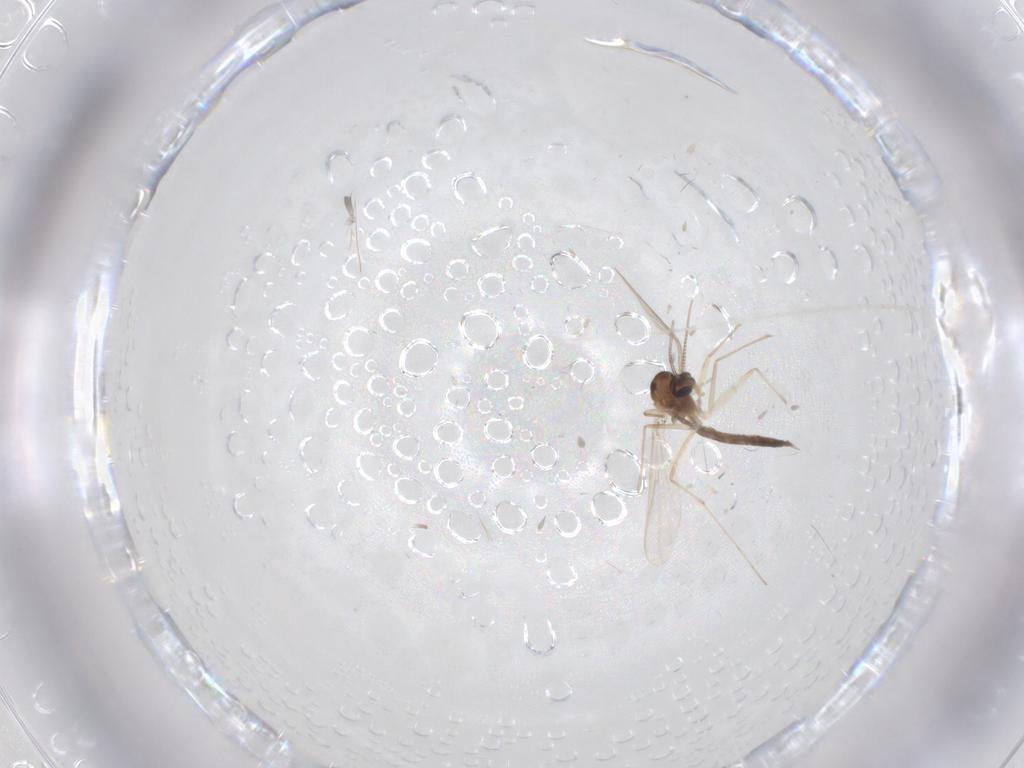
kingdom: Animalia
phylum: Arthropoda
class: Insecta
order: Diptera
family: Chironomidae
